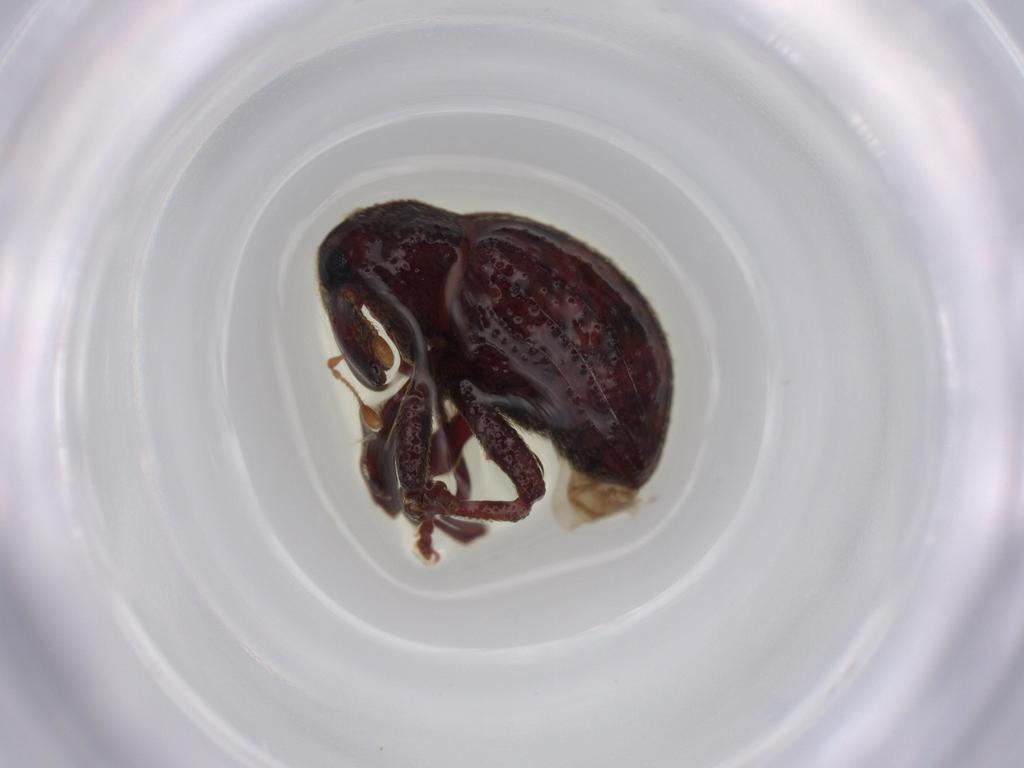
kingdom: Animalia
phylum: Arthropoda
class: Insecta
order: Coleoptera
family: Curculionidae
